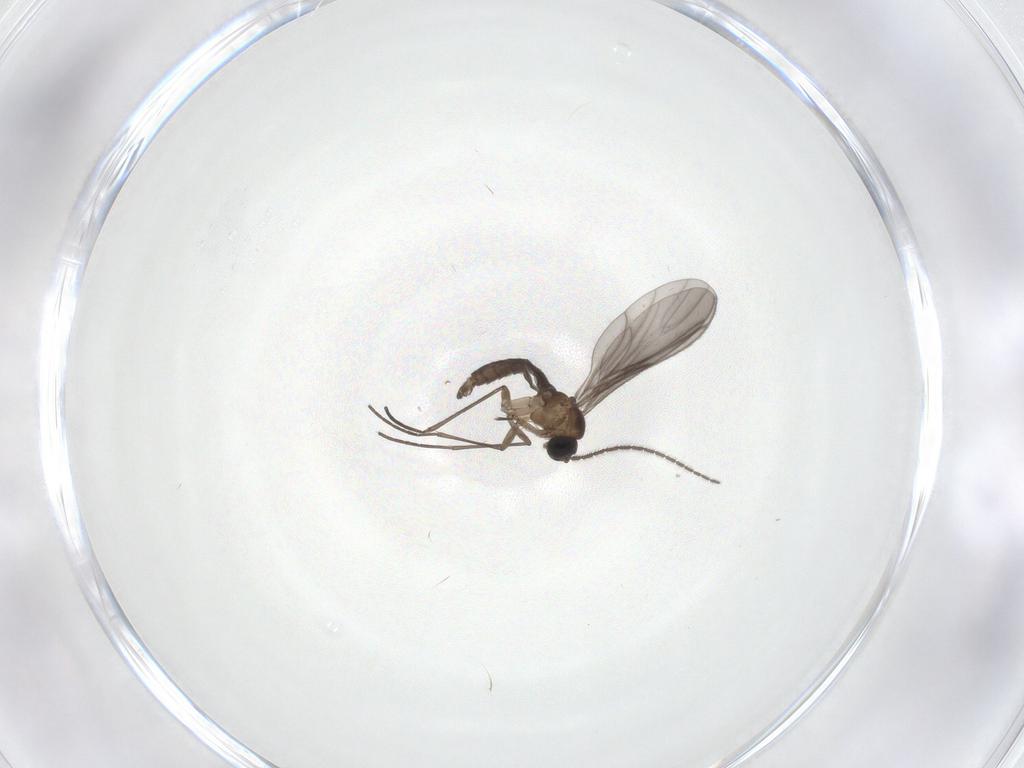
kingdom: Animalia
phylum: Arthropoda
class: Insecta
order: Diptera
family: Sciaridae
